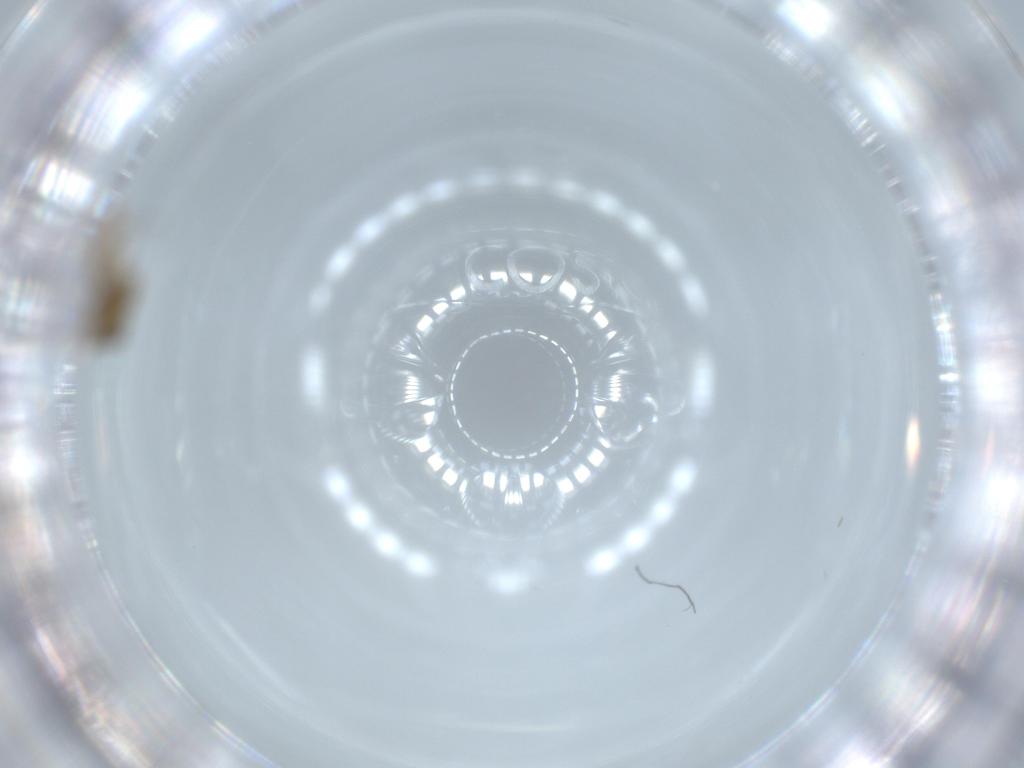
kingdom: Animalia
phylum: Arthropoda
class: Insecta
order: Diptera
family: Chironomidae
